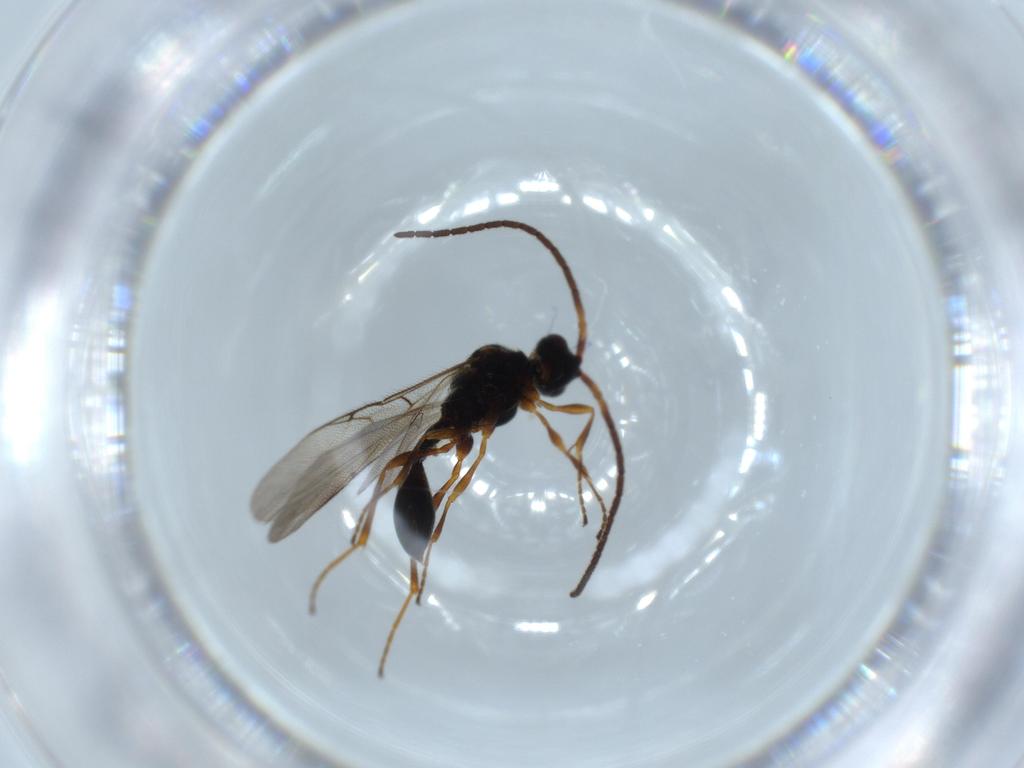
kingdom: Animalia
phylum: Arthropoda
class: Insecta
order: Hymenoptera
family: Eulophidae
